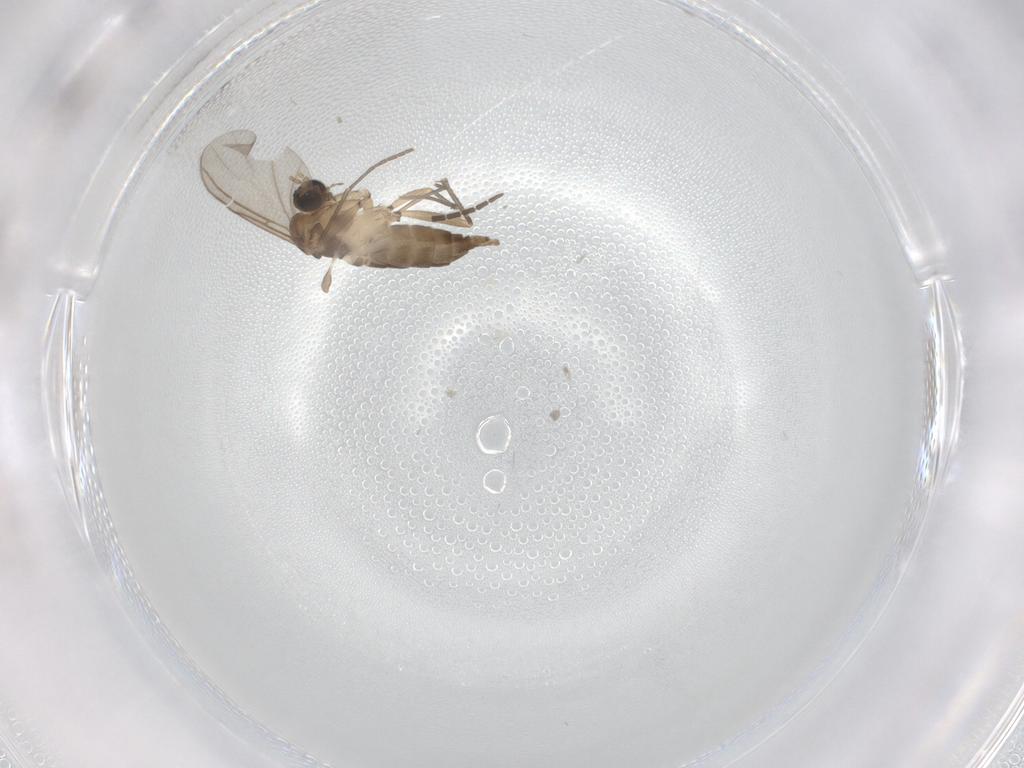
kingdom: Animalia
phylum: Arthropoda
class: Insecta
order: Diptera
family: Sciaridae
